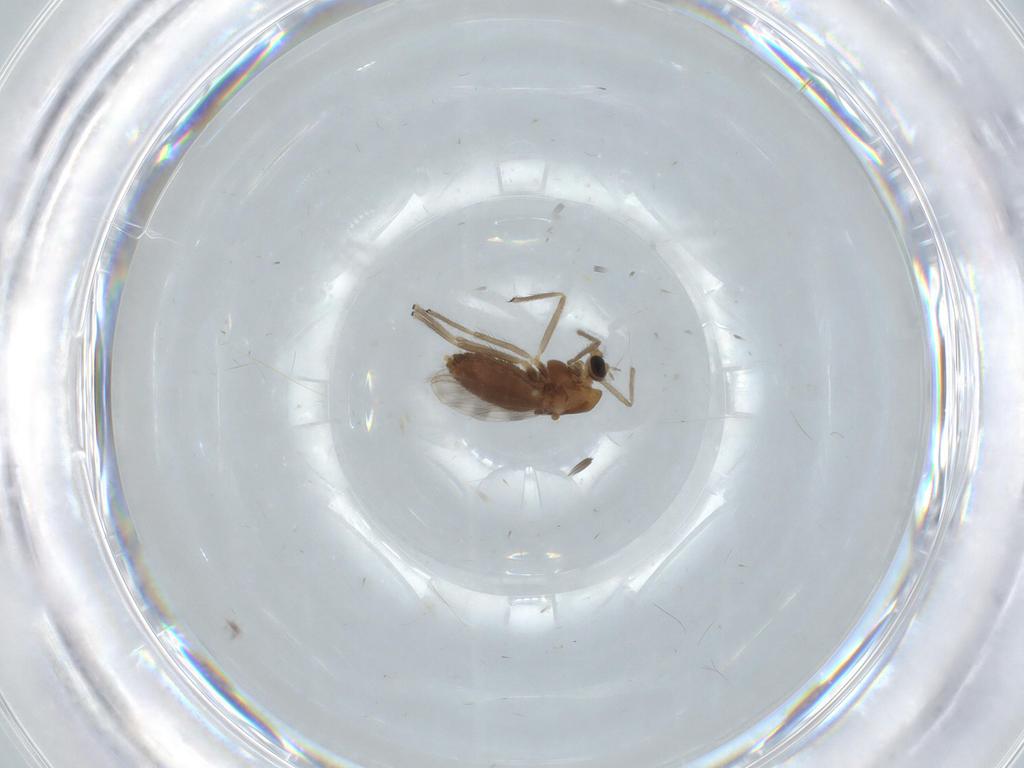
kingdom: Animalia
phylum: Arthropoda
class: Insecta
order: Diptera
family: Chironomidae
